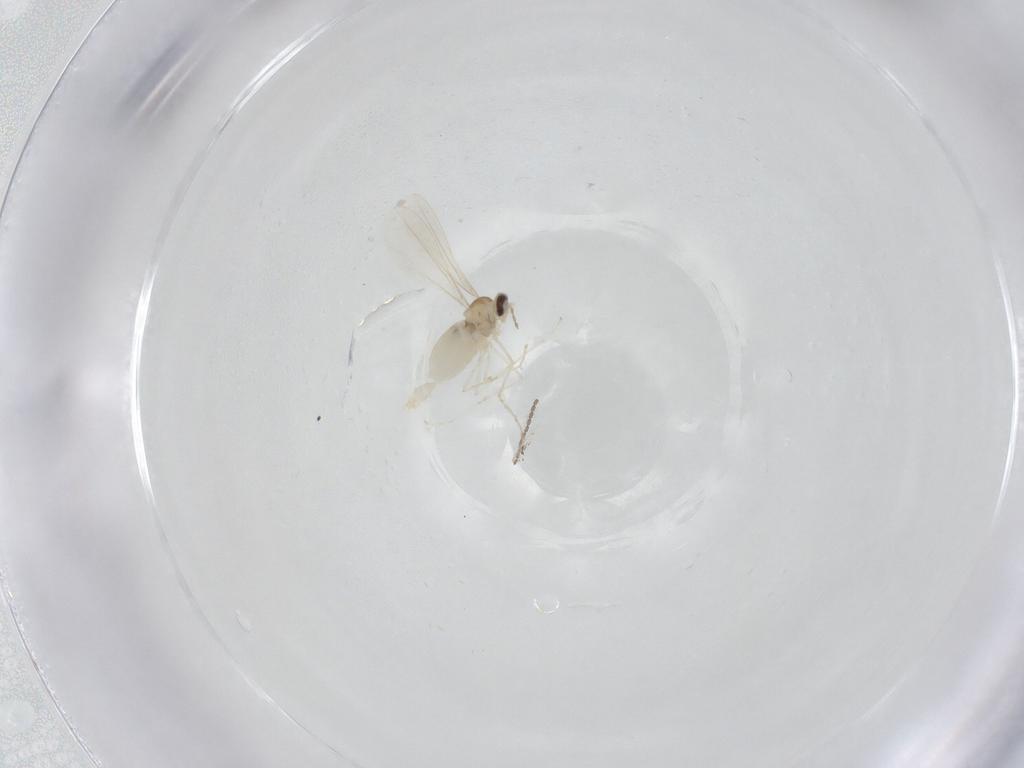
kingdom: Animalia
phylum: Arthropoda
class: Insecta
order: Diptera
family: Cecidomyiidae
